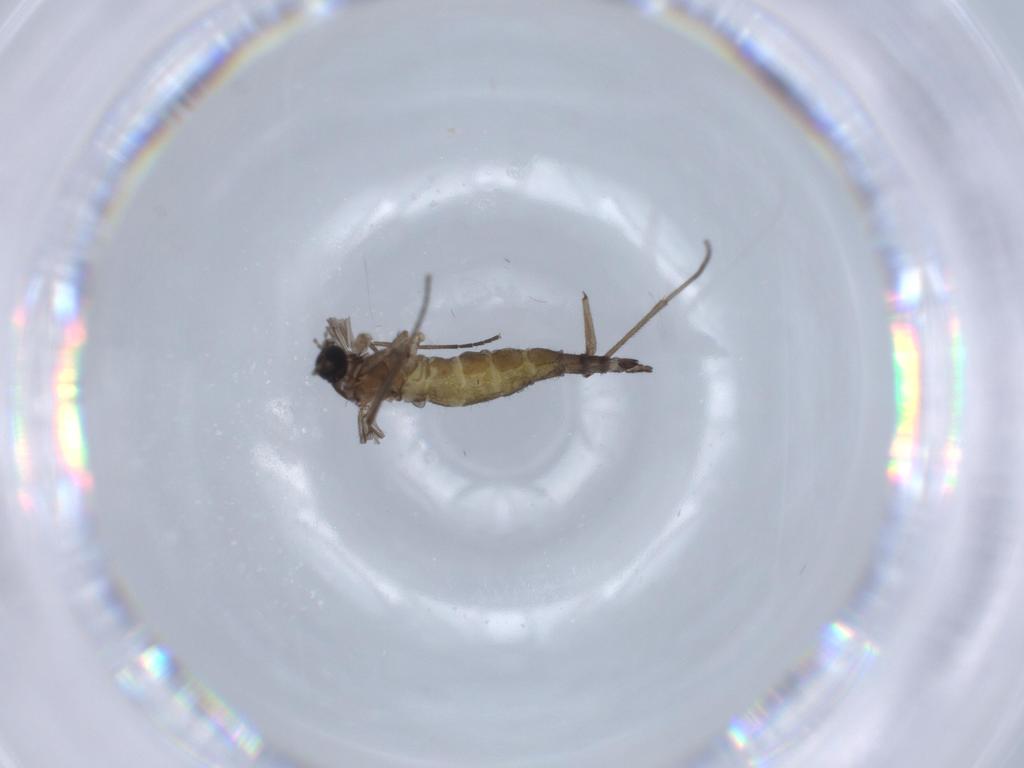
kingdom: Animalia
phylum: Arthropoda
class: Insecta
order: Diptera
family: Sciaridae
